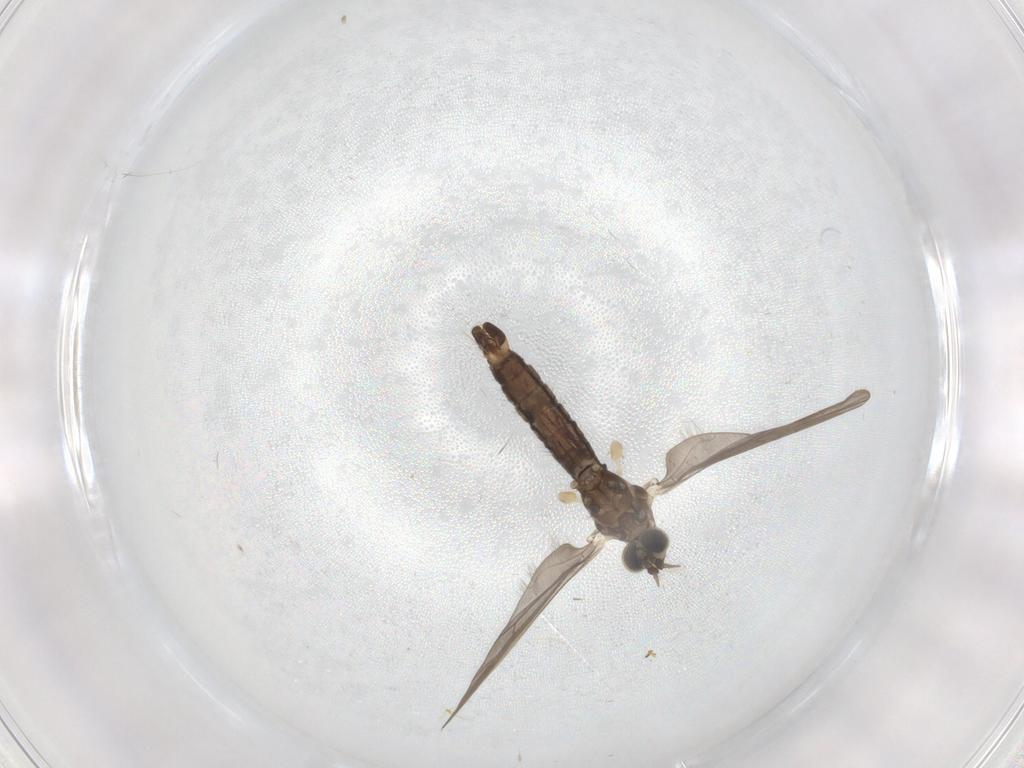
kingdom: Animalia
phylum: Arthropoda
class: Insecta
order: Diptera
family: Limoniidae
